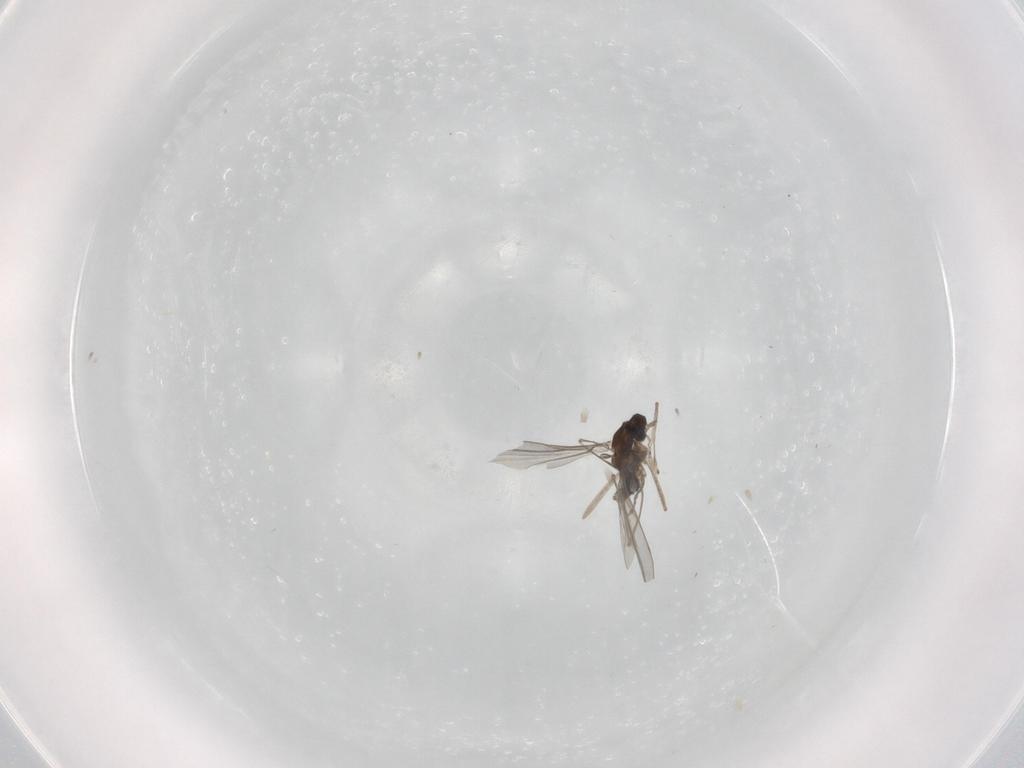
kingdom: Animalia
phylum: Arthropoda
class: Insecta
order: Diptera
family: Cecidomyiidae
